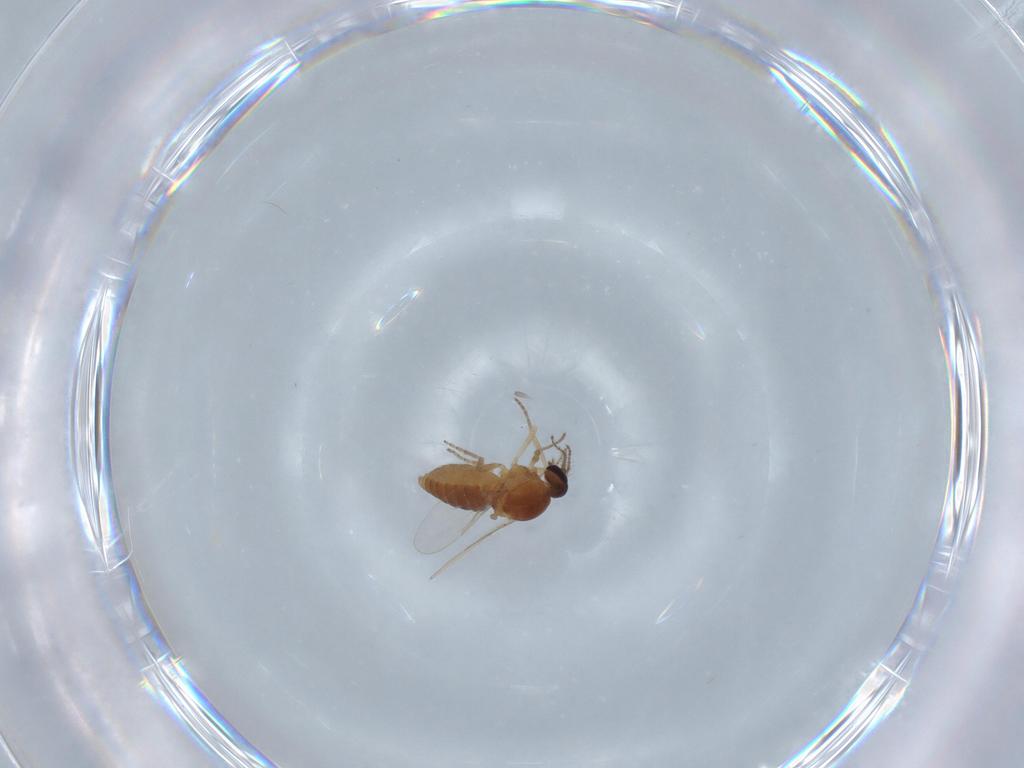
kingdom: Animalia
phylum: Arthropoda
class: Insecta
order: Diptera
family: Ceratopogonidae
